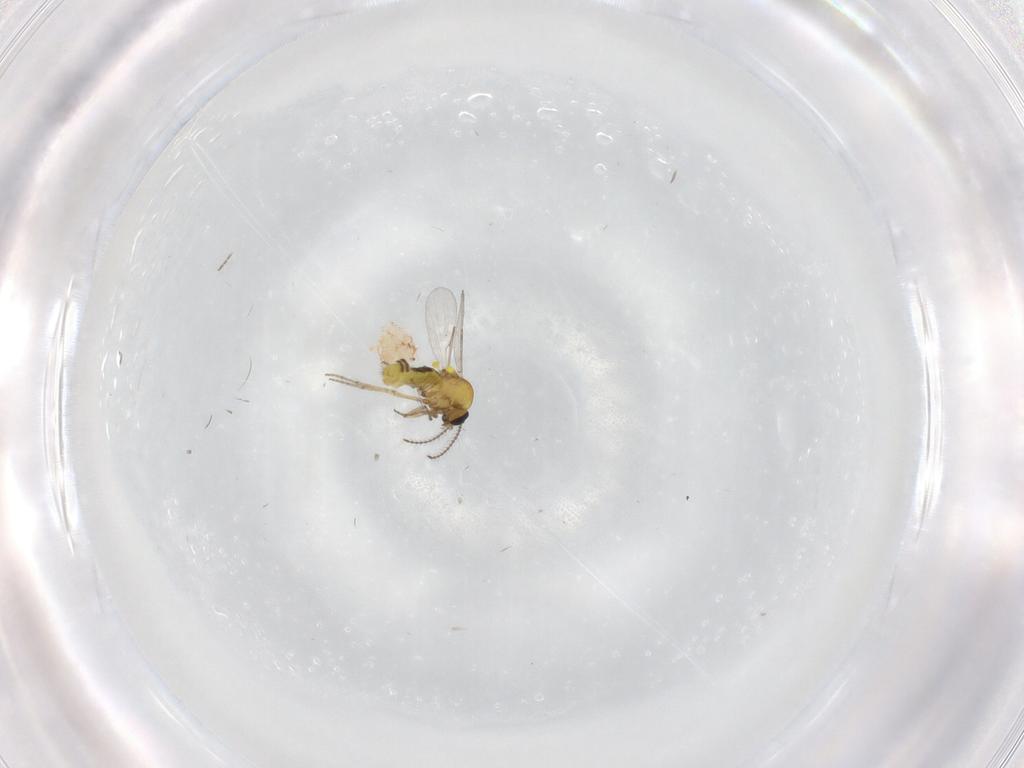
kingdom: Animalia
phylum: Arthropoda
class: Insecta
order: Diptera
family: Ceratopogonidae
